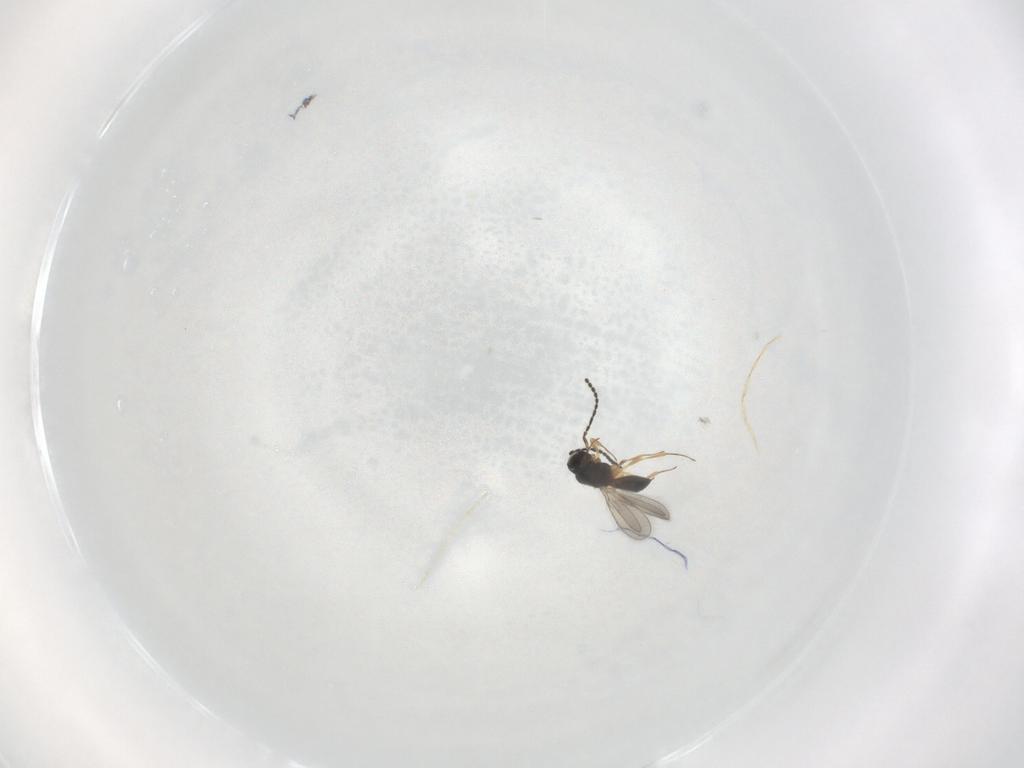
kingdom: Animalia
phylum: Arthropoda
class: Insecta
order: Hymenoptera
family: Scelionidae
